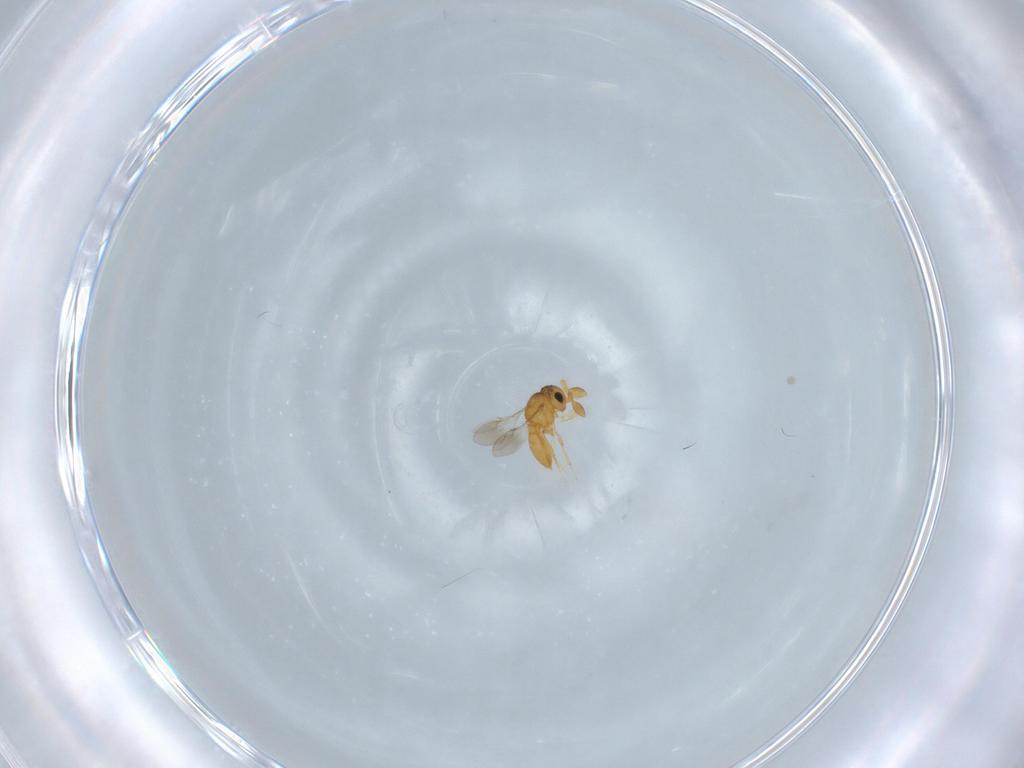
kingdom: Animalia
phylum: Arthropoda
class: Insecta
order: Hymenoptera
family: Scelionidae
